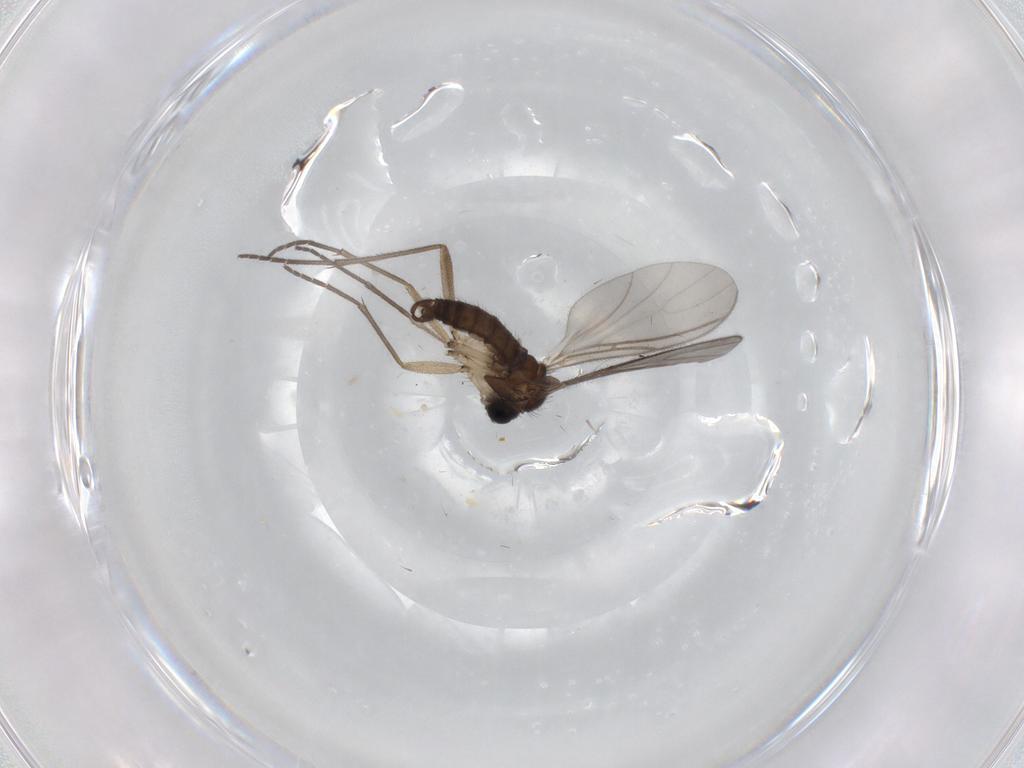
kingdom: Animalia
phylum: Arthropoda
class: Insecta
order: Diptera
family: Sciaridae
